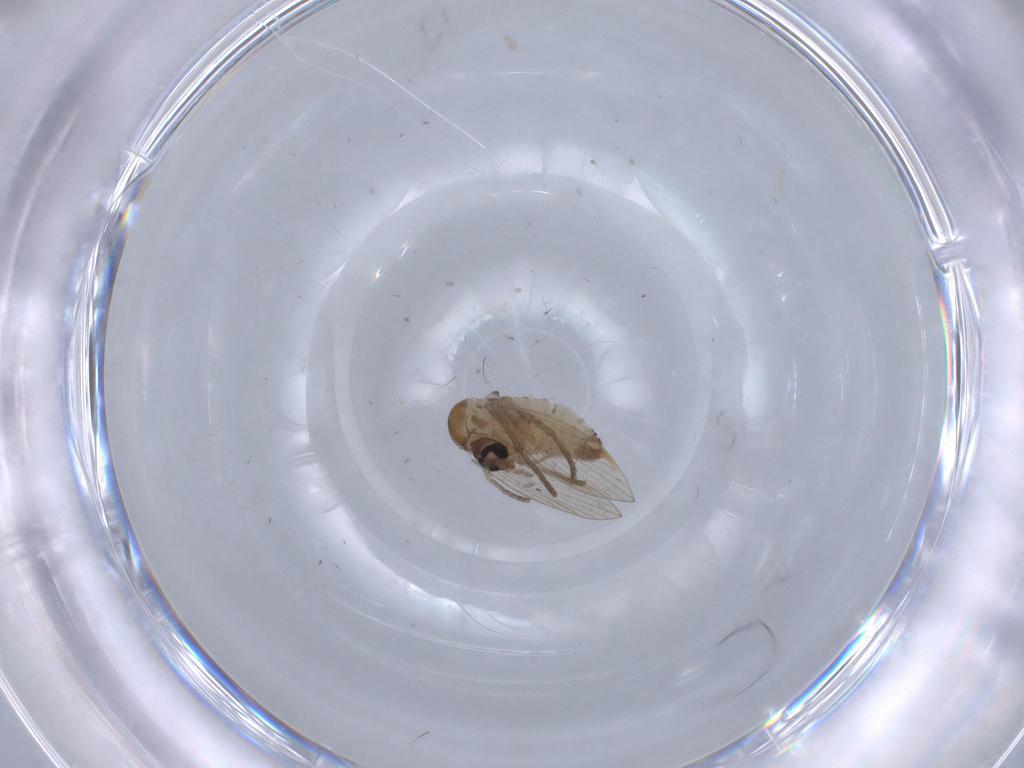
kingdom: Animalia
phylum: Arthropoda
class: Insecta
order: Diptera
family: Psychodidae
